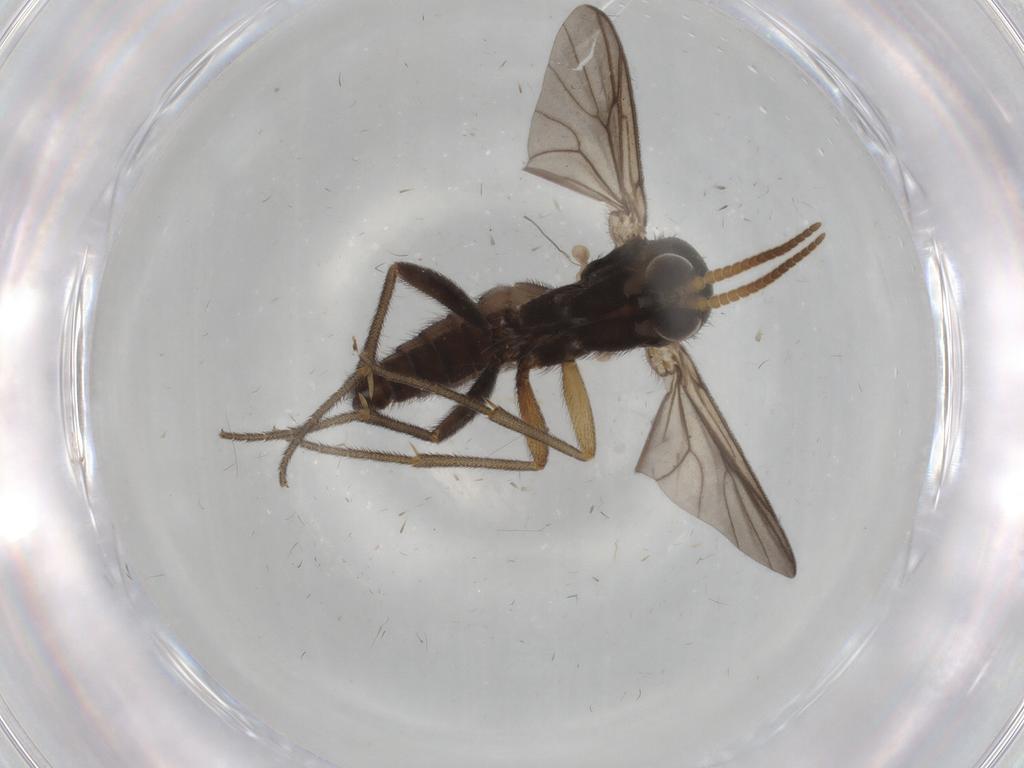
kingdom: Animalia
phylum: Arthropoda
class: Insecta
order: Diptera
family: Mycetophilidae
